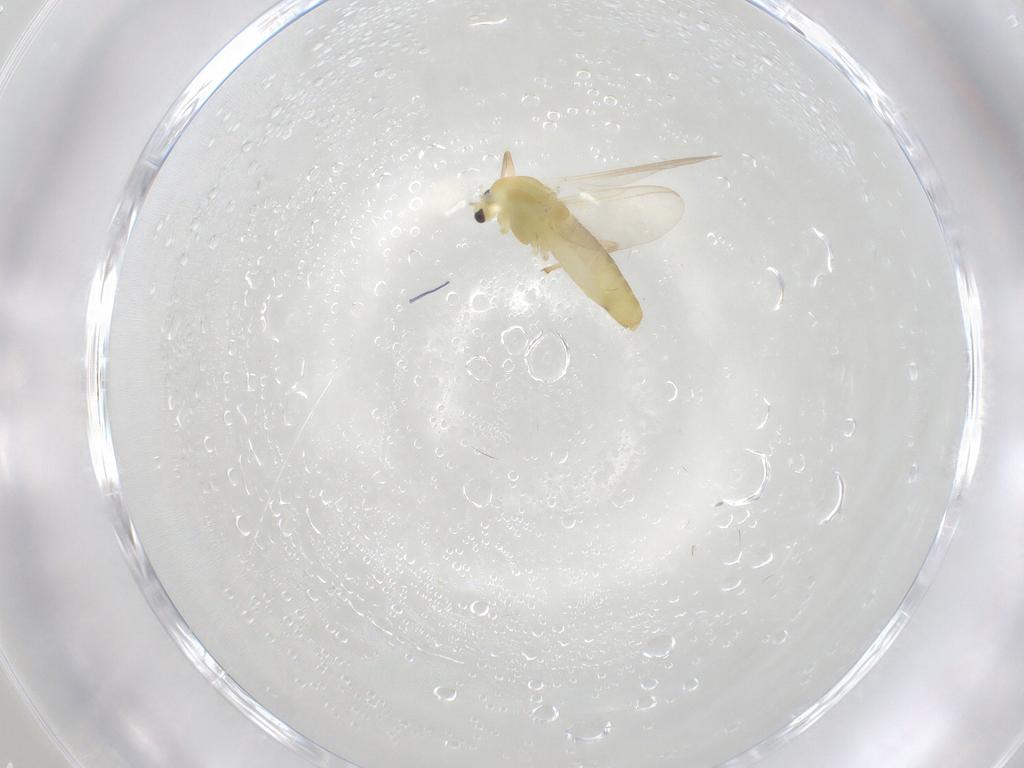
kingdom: Animalia
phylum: Arthropoda
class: Insecta
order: Diptera
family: Chironomidae
